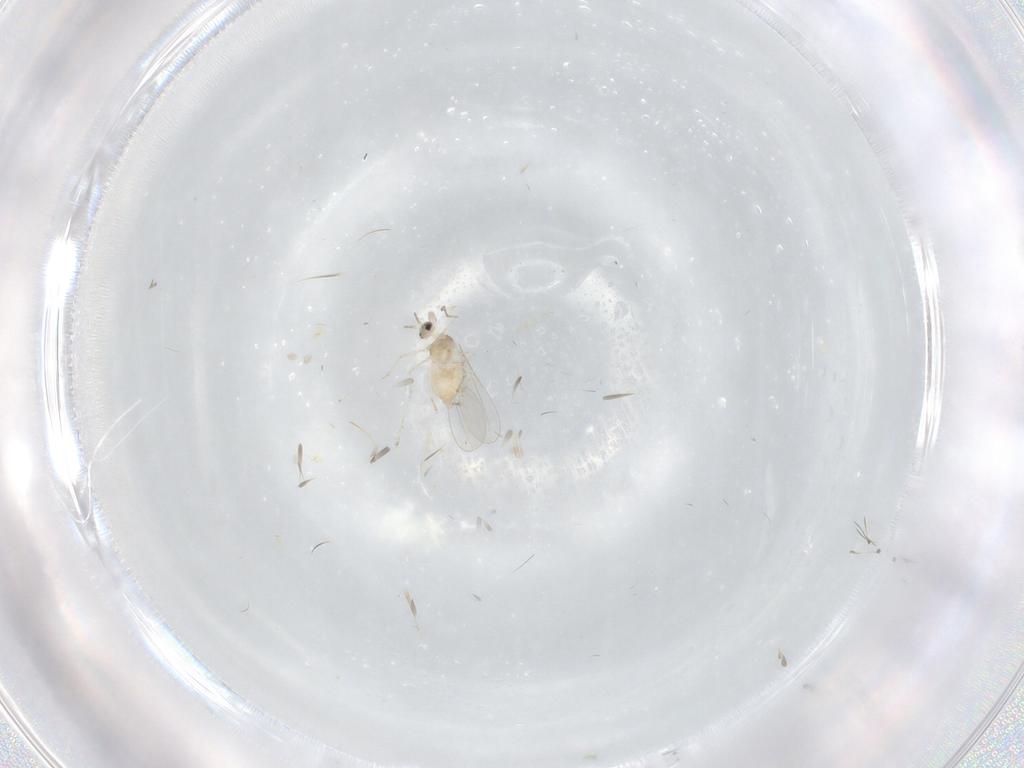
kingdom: Animalia
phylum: Arthropoda
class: Insecta
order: Diptera
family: Cecidomyiidae
